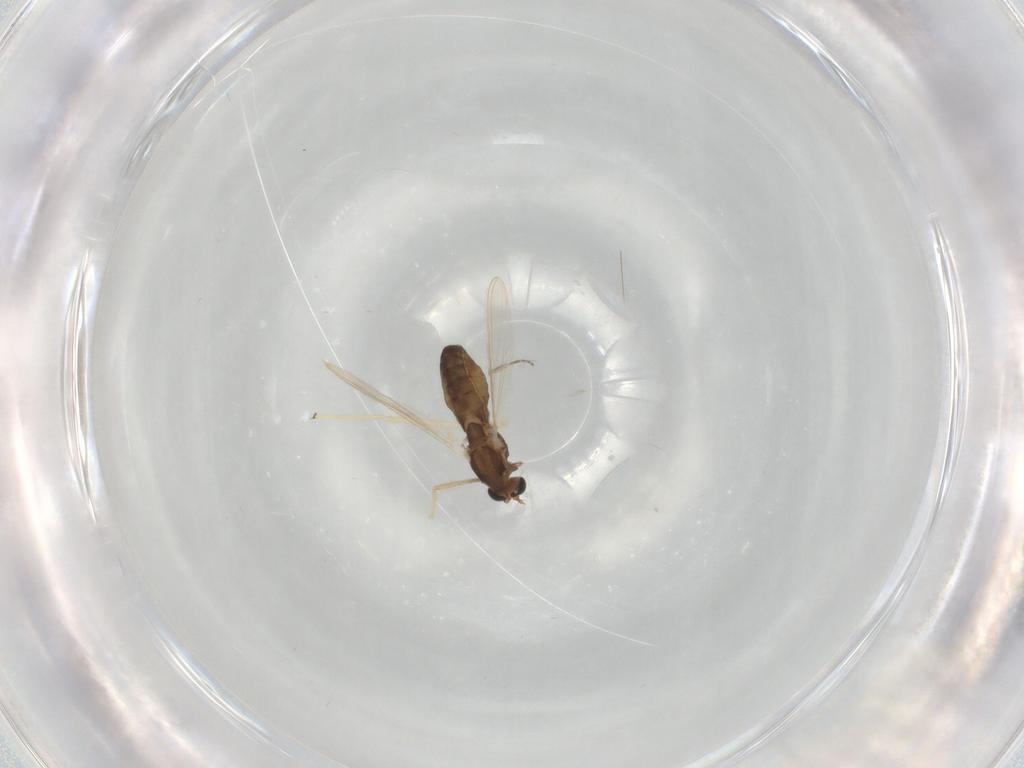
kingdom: Animalia
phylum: Arthropoda
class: Insecta
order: Diptera
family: Chironomidae
